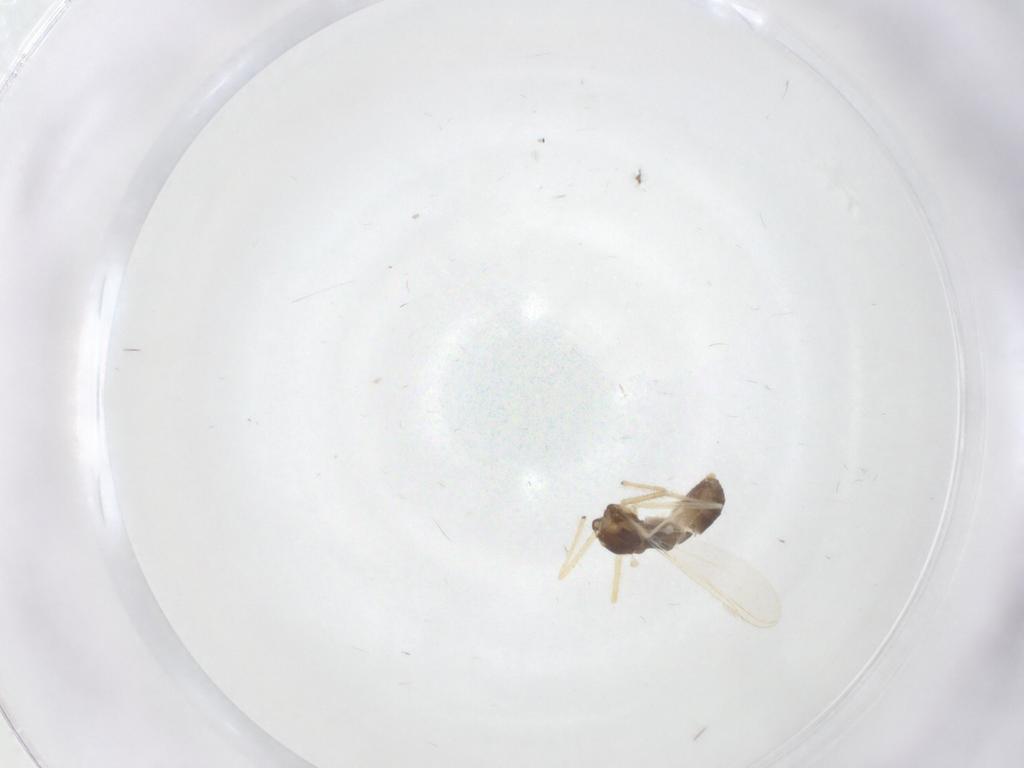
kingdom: Animalia
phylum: Arthropoda
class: Insecta
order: Diptera
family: Chironomidae
